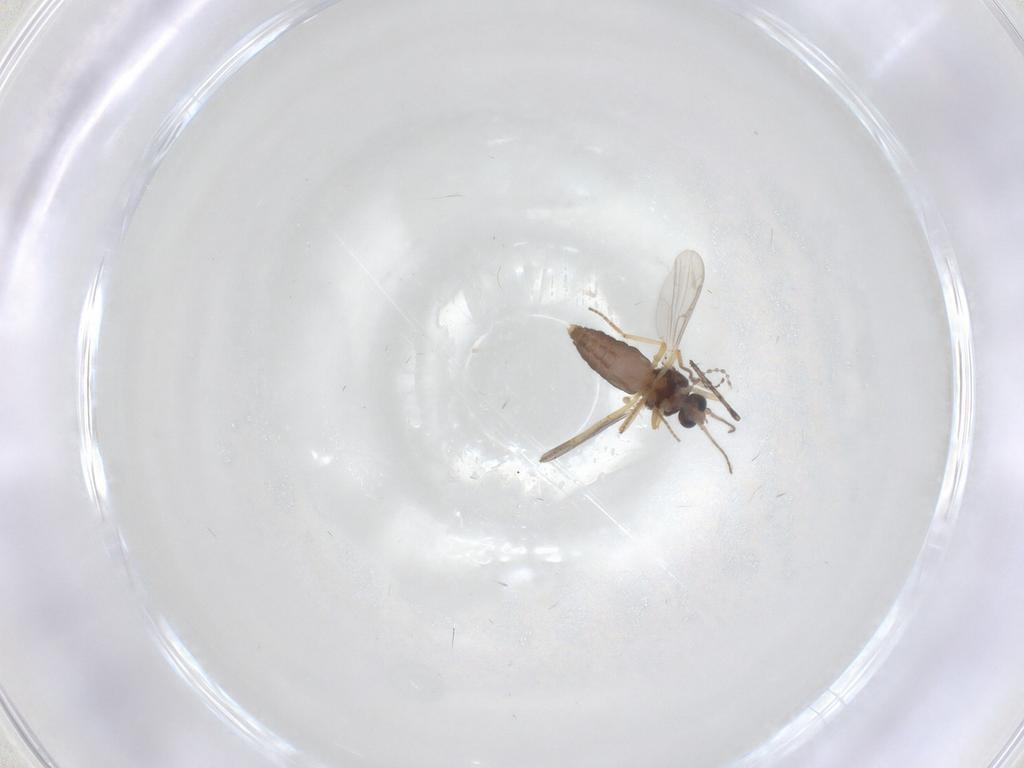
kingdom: Animalia
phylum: Arthropoda
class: Insecta
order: Diptera
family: Ceratopogonidae
